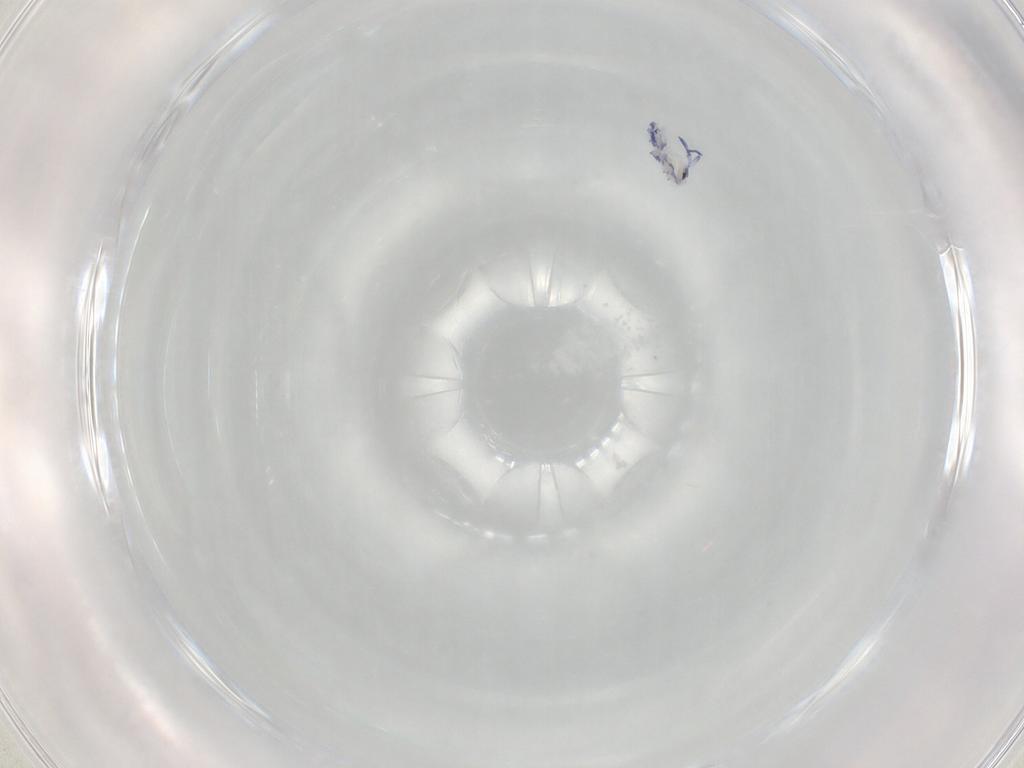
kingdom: Animalia
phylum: Arthropoda
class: Collembola
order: Entomobryomorpha
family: Entomobryidae
